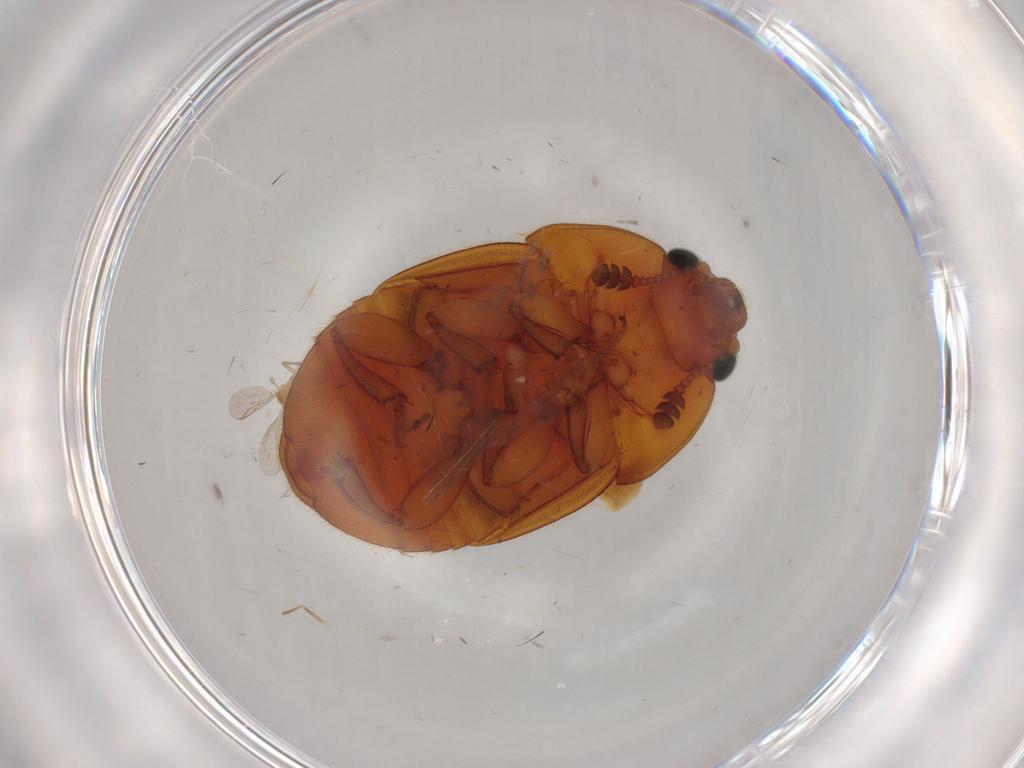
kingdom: Animalia
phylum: Arthropoda
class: Insecta
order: Coleoptera
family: Nitidulidae
